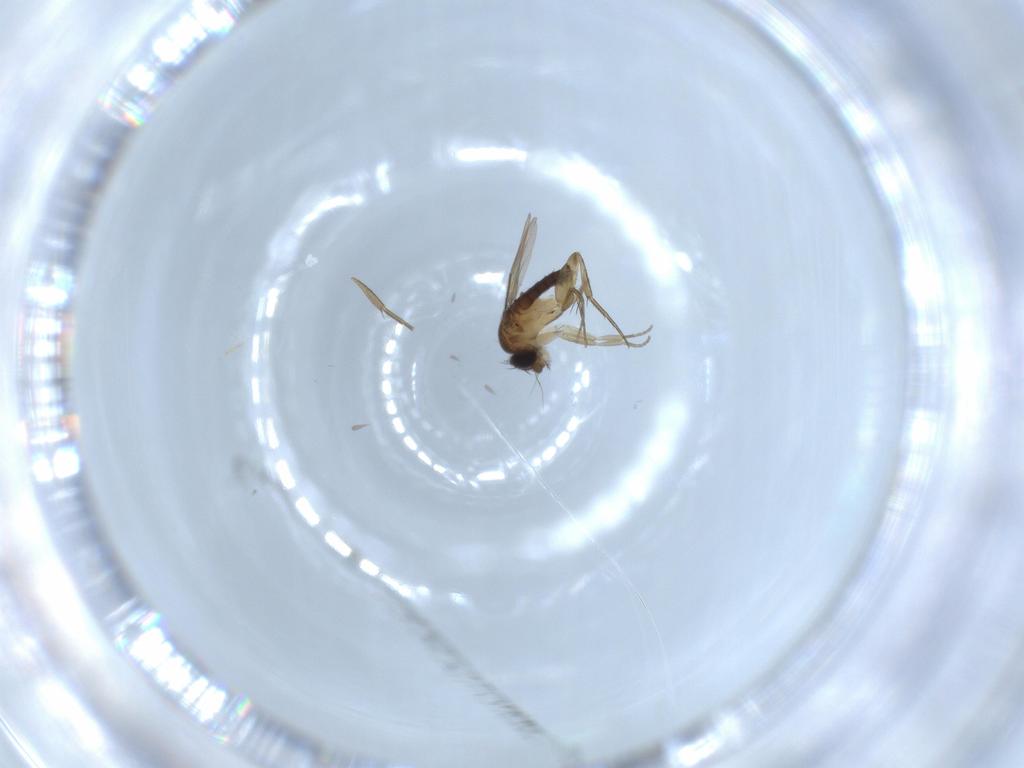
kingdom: Animalia
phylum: Arthropoda
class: Insecta
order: Diptera
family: Phoridae
